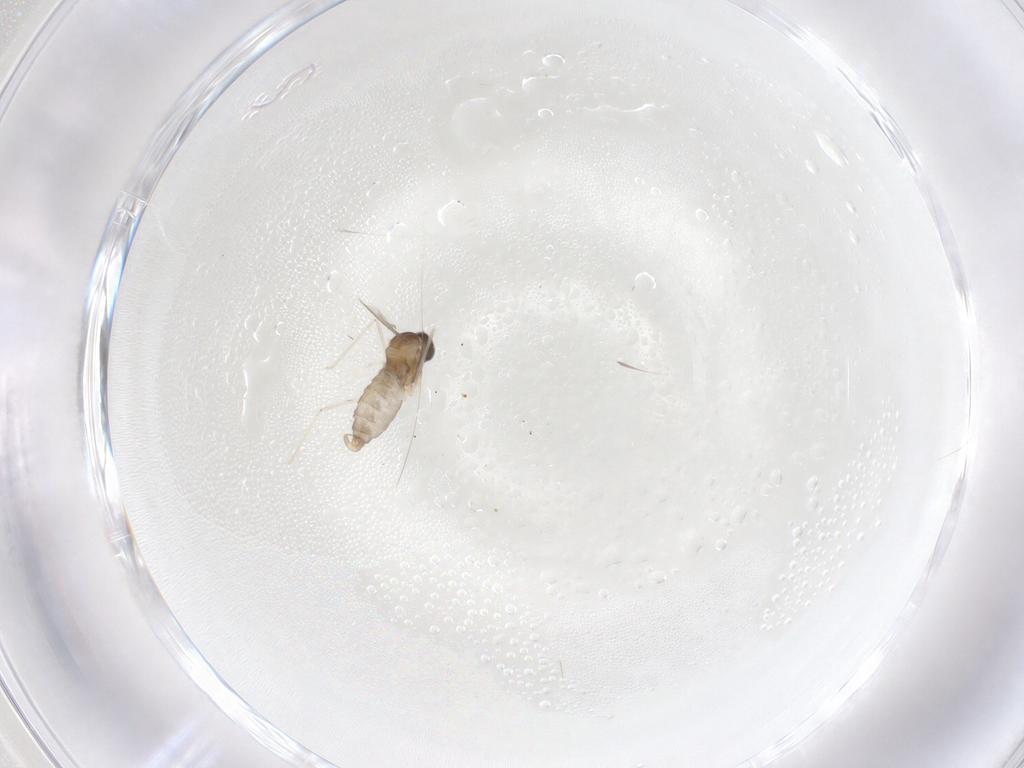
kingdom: Animalia
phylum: Arthropoda
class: Insecta
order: Diptera
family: Cecidomyiidae
